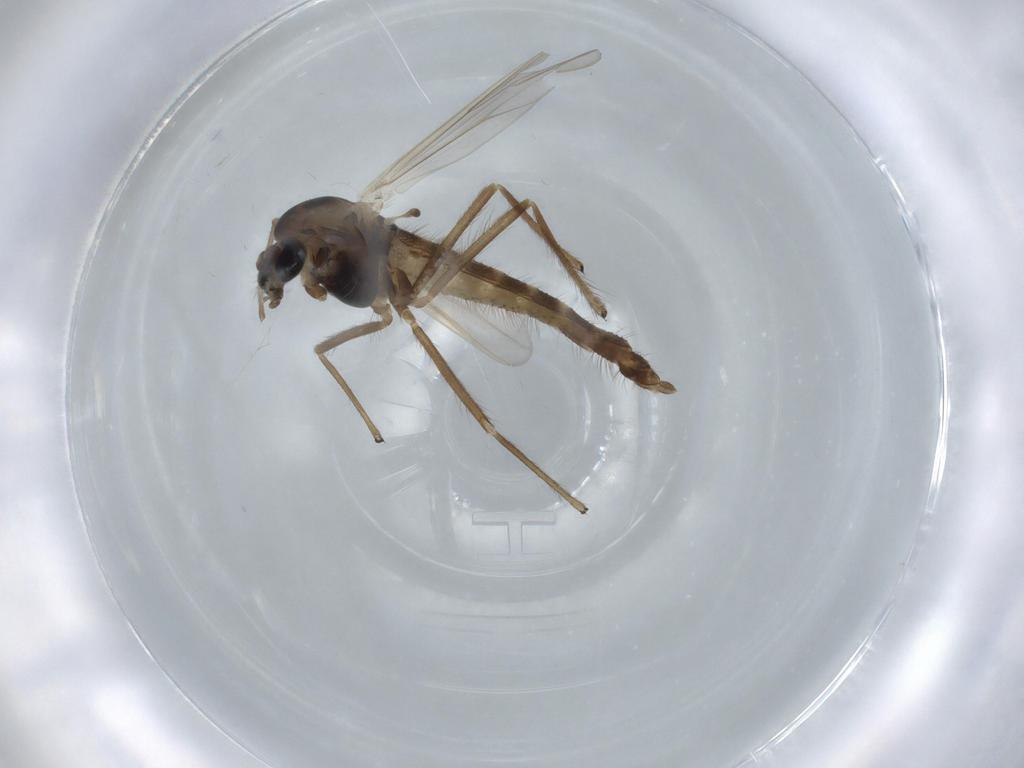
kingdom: Animalia
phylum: Arthropoda
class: Insecta
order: Diptera
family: Chironomidae
